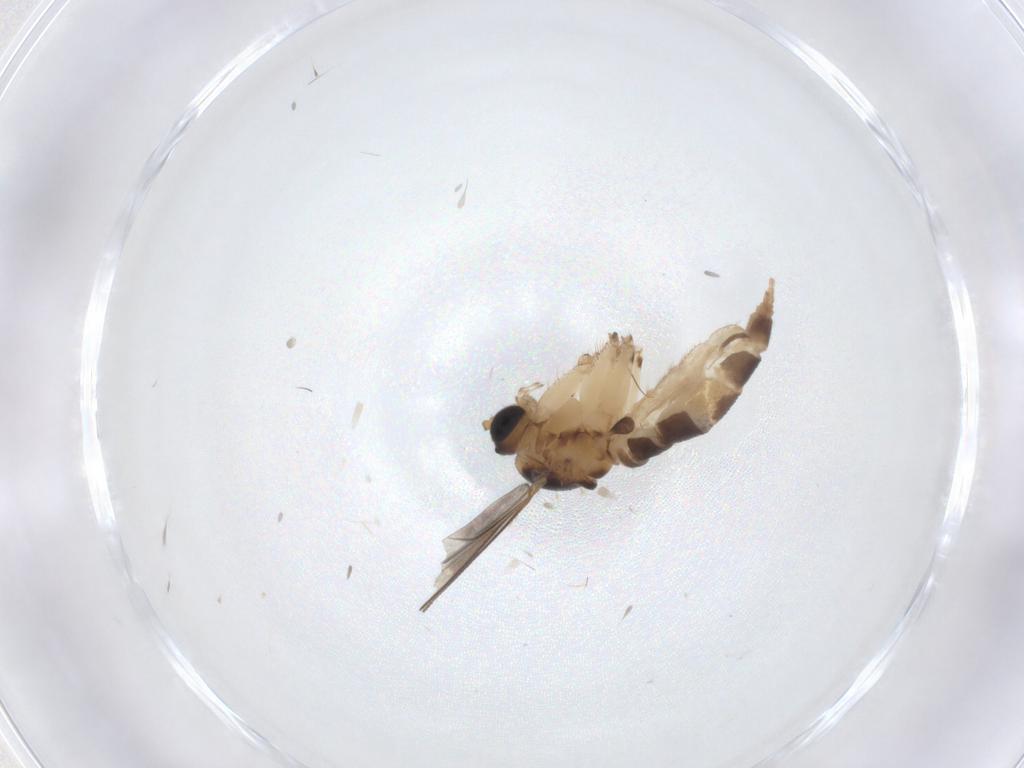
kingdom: Animalia
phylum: Arthropoda
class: Insecta
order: Diptera
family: Sciaridae
